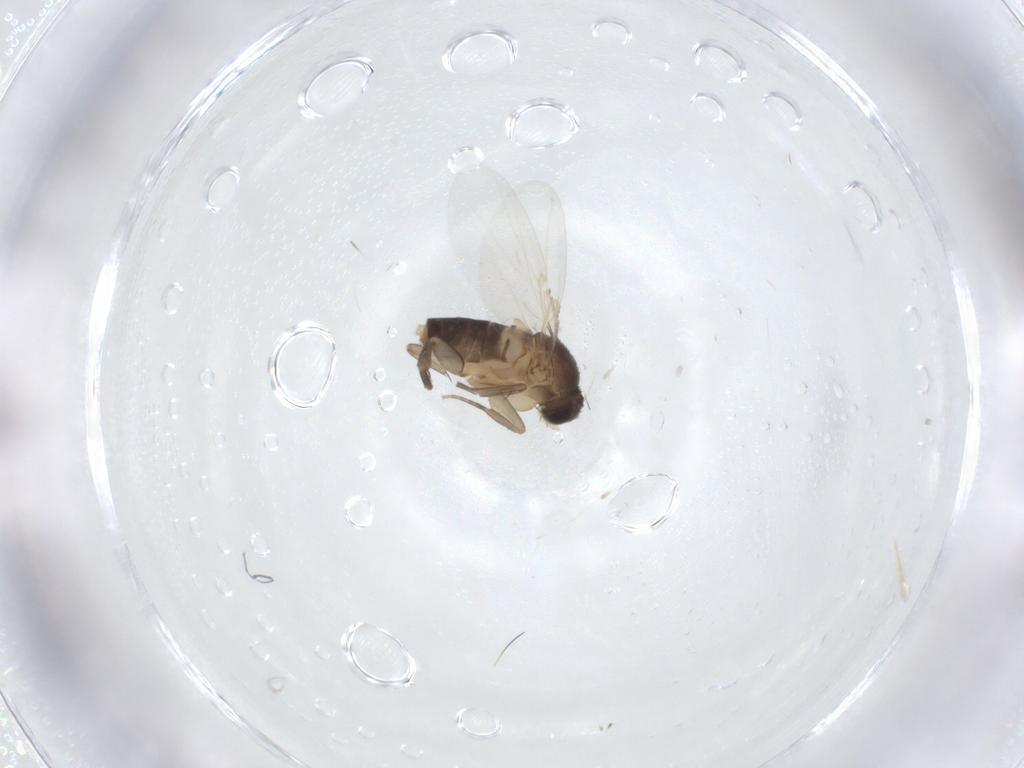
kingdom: Animalia
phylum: Arthropoda
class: Insecta
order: Diptera
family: Phoridae
